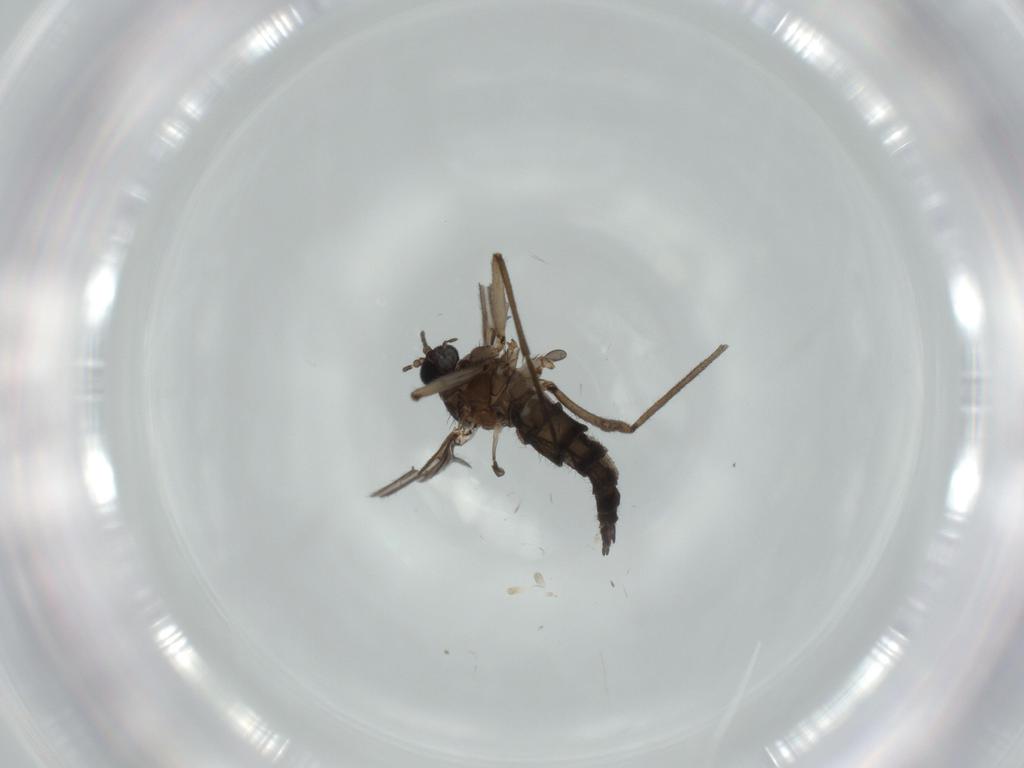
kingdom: Animalia
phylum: Arthropoda
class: Insecta
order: Diptera
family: Sciaridae
